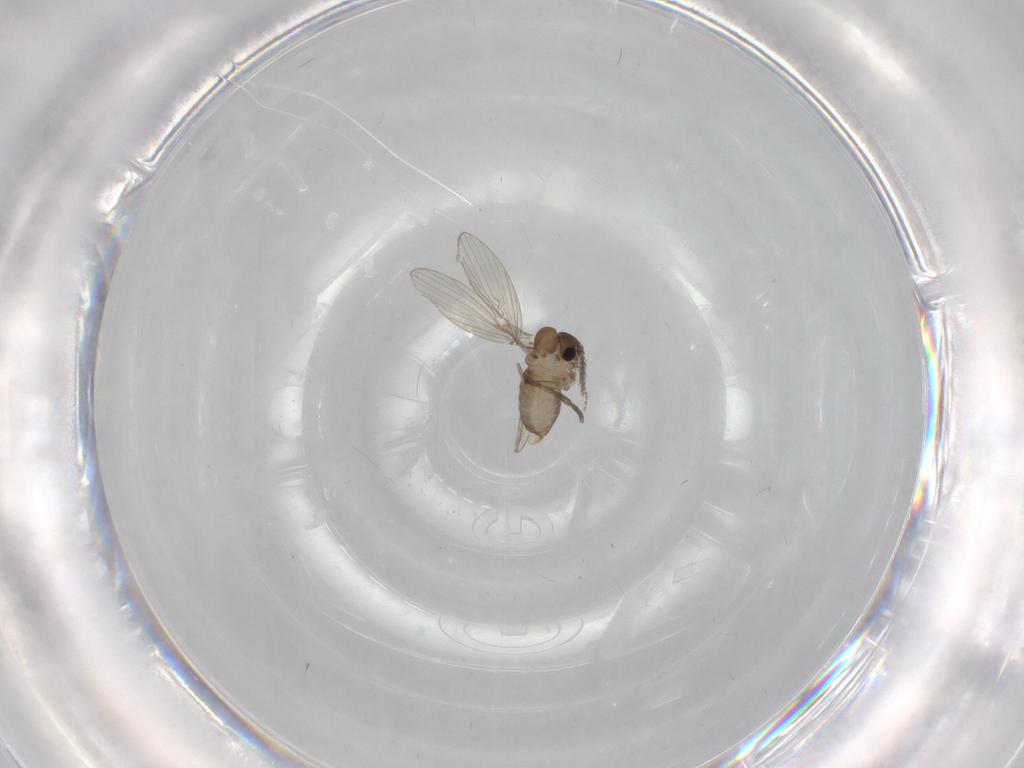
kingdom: Animalia
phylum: Arthropoda
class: Insecta
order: Diptera
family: Psychodidae
